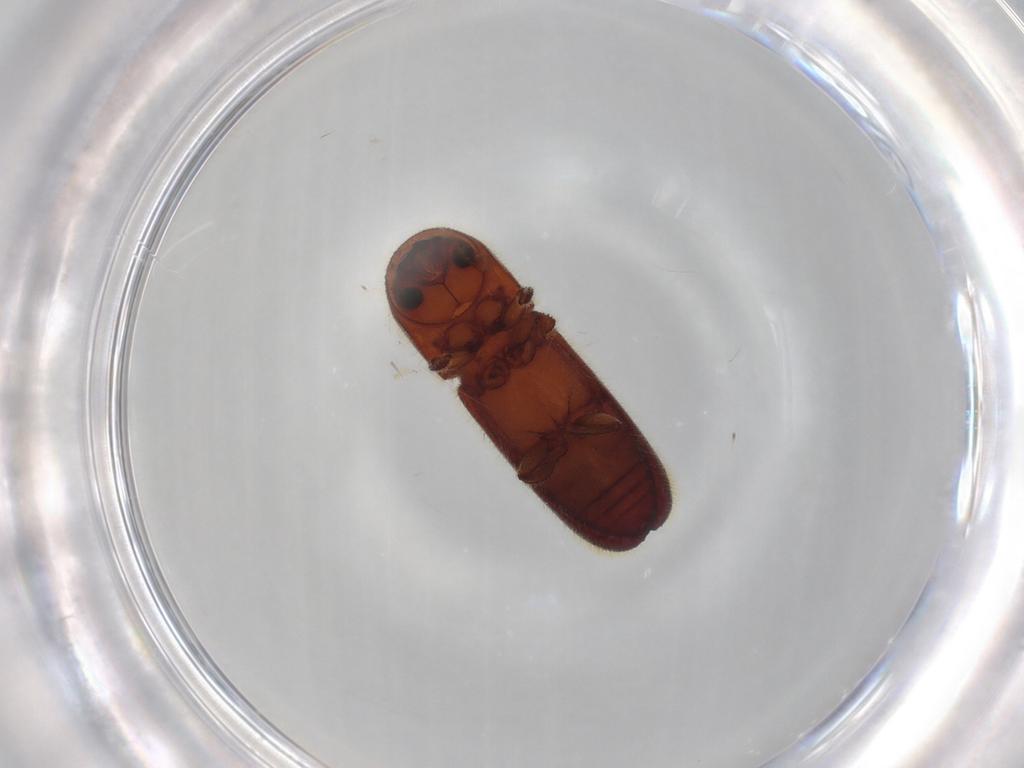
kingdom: Animalia
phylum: Arthropoda
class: Insecta
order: Coleoptera
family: Staphylinidae
